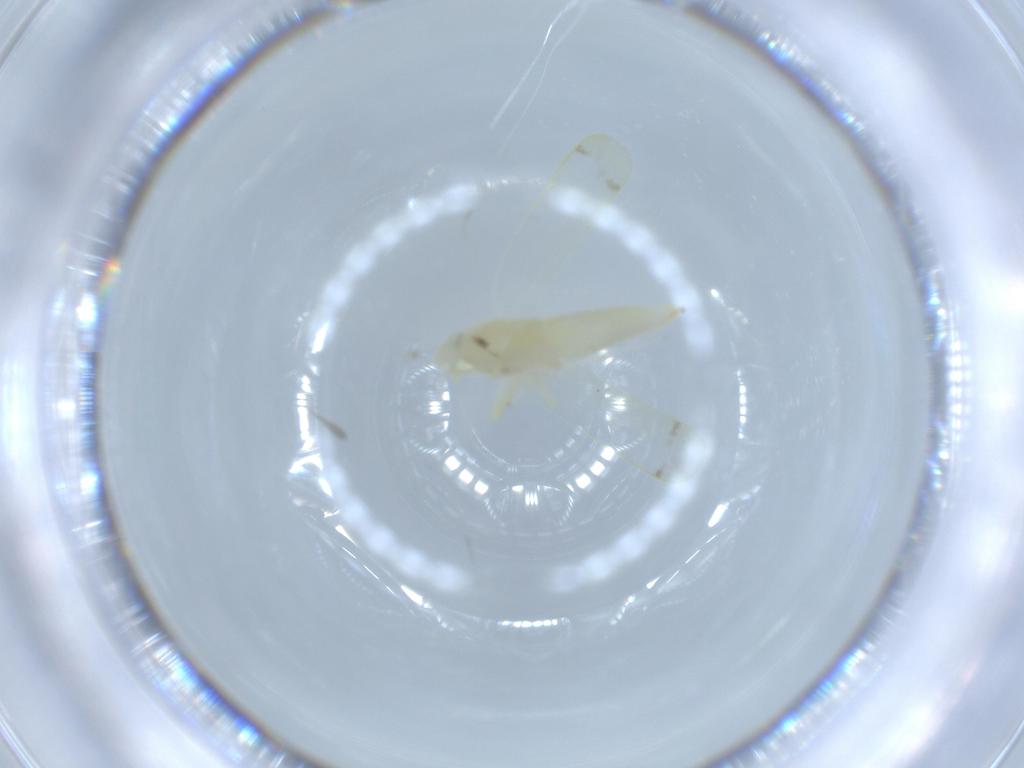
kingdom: Animalia
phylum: Arthropoda
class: Insecta
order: Hemiptera
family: Cicadellidae
